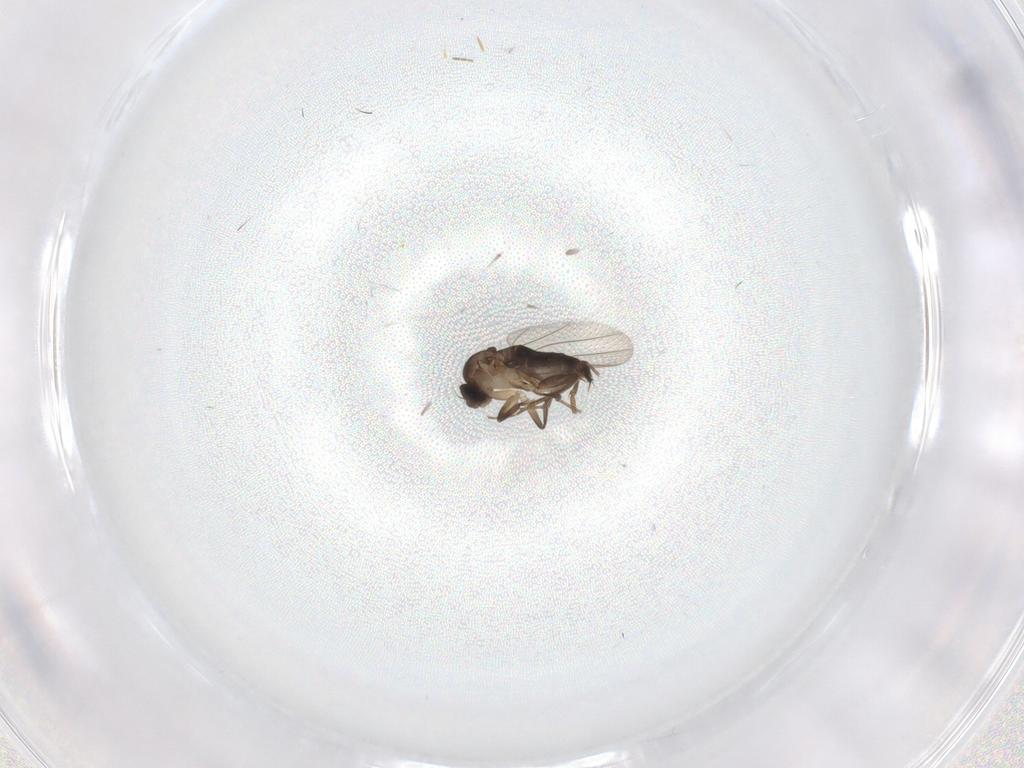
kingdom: Animalia
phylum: Arthropoda
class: Insecta
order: Diptera
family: Phoridae
